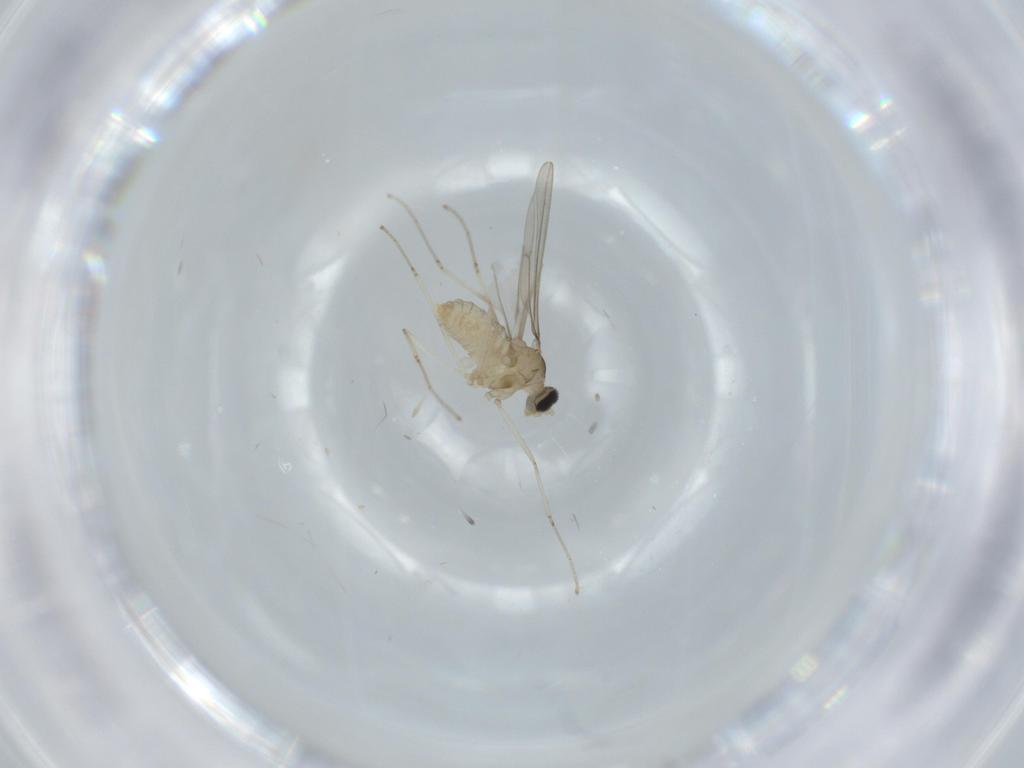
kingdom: Animalia
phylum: Arthropoda
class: Insecta
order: Diptera
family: Cecidomyiidae
